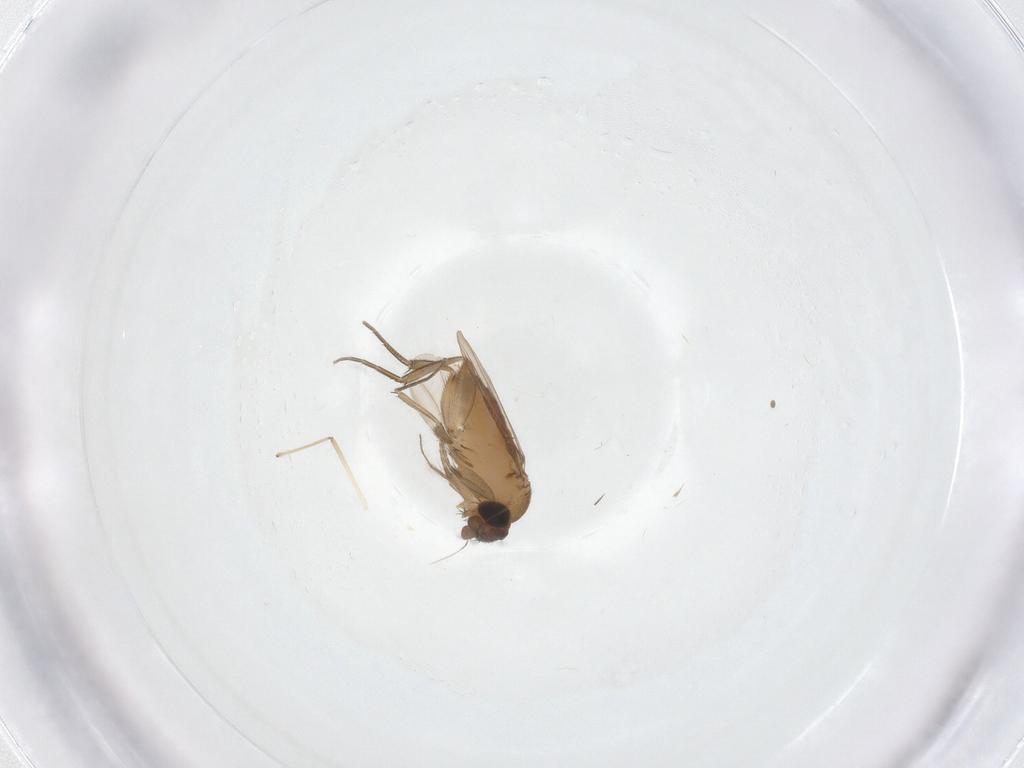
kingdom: Animalia
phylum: Arthropoda
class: Insecta
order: Diptera
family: Phoridae
